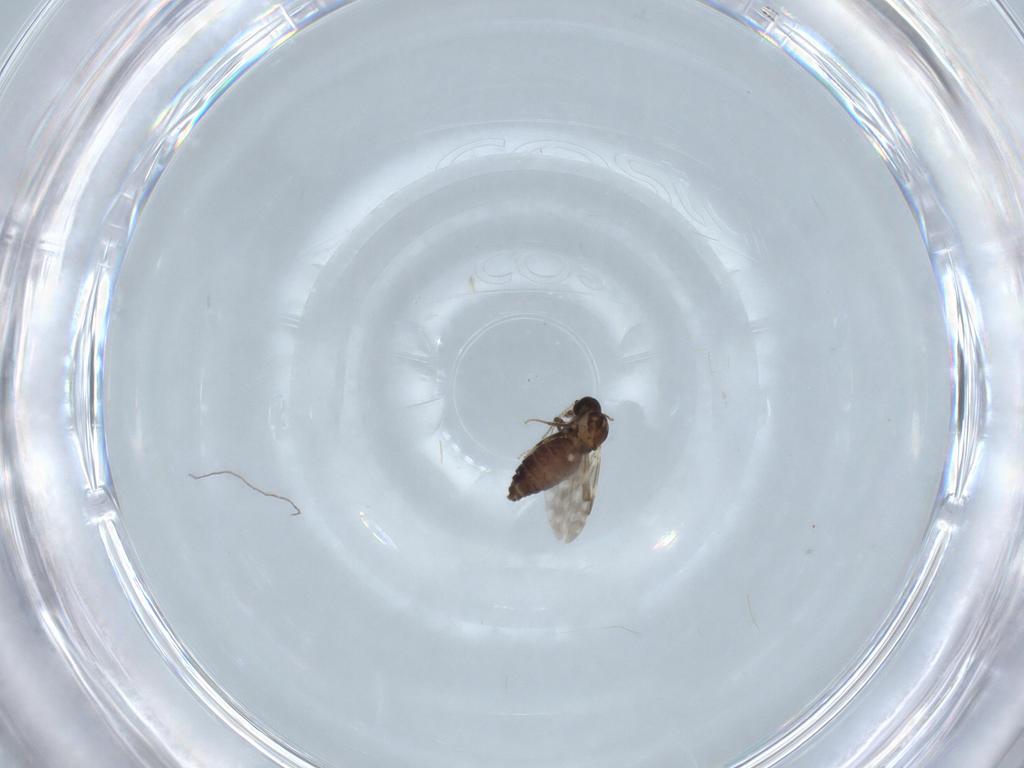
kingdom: Animalia
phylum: Arthropoda
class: Insecta
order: Diptera
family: Ceratopogonidae
